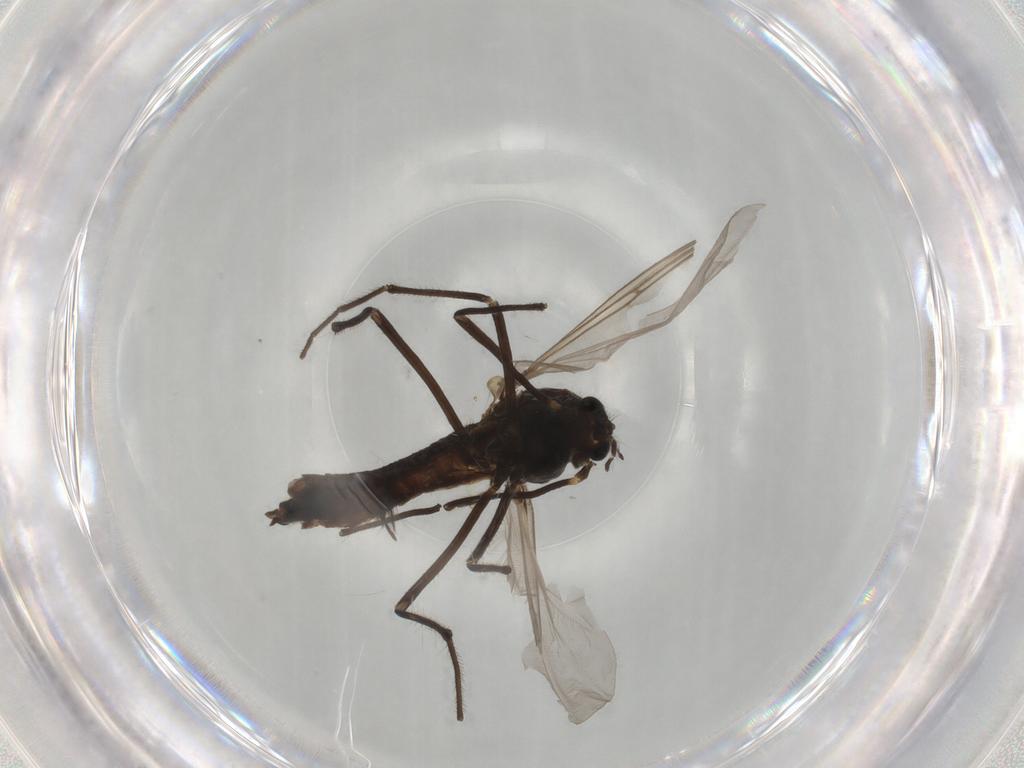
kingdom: Animalia
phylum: Arthropoda
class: Insecta
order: Diptera
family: Chironomidae
